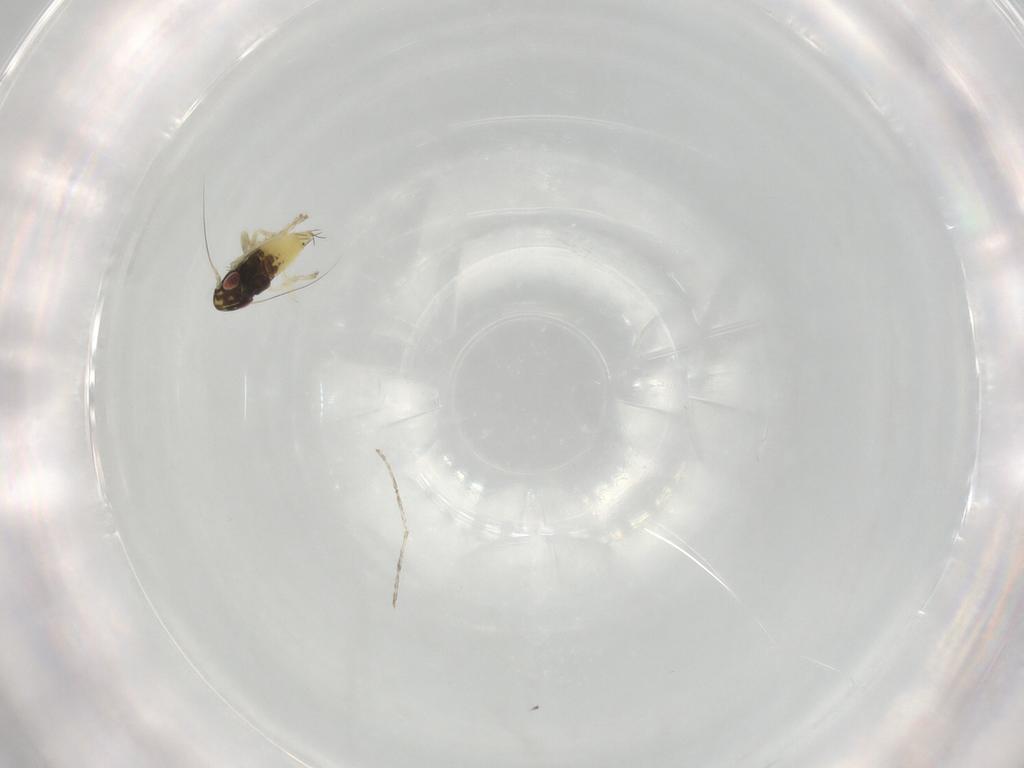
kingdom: Animalia
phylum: Arthropoda
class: Insecta
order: Hemiptera
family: Cicadellidae
